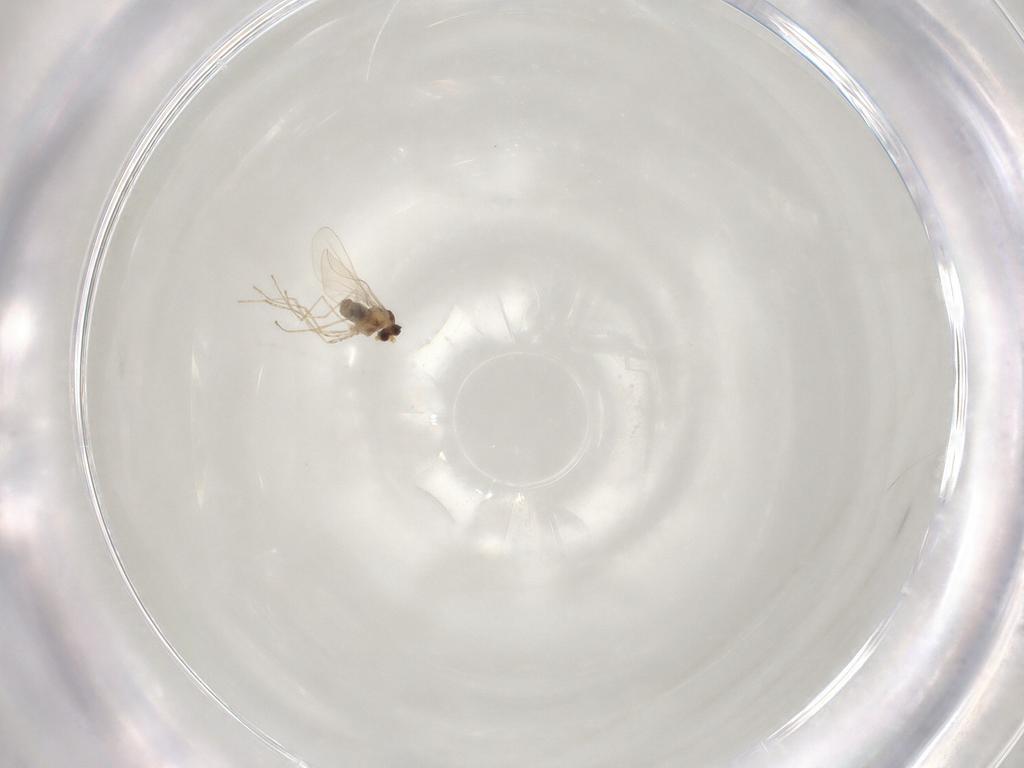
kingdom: Animalia
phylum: Arthropoda
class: Insecta
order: Diptera
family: Cecidomyiidae
